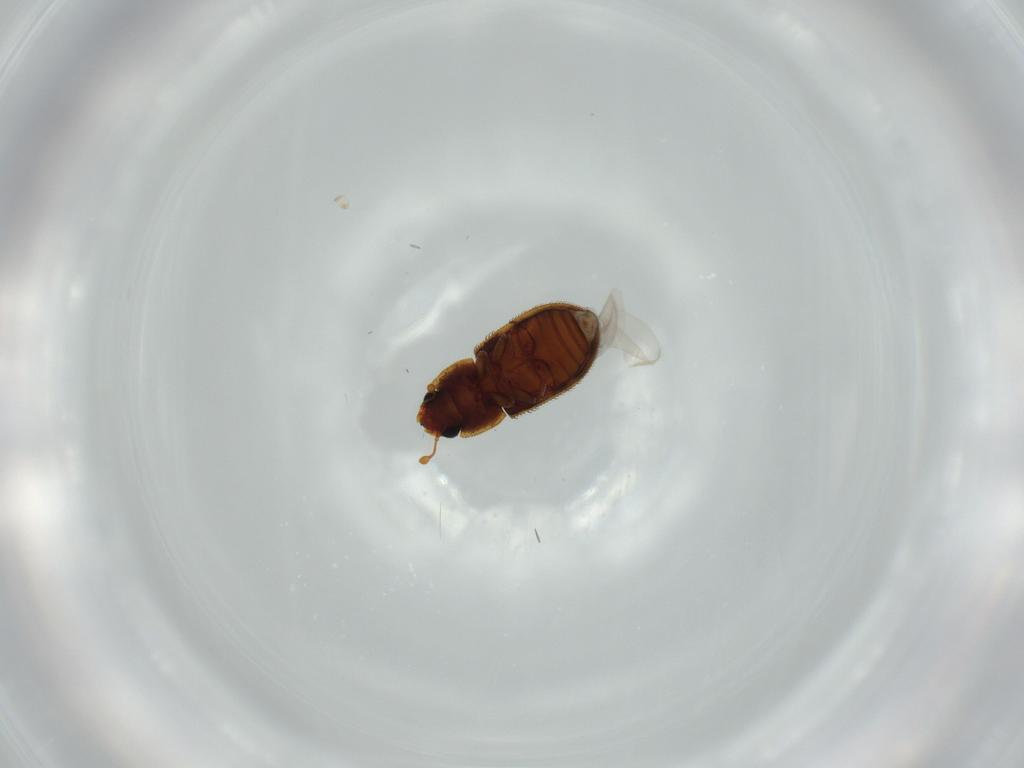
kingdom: Animalia
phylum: Arthropoda
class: Insecta
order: Coleoptera
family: Zopheridae
